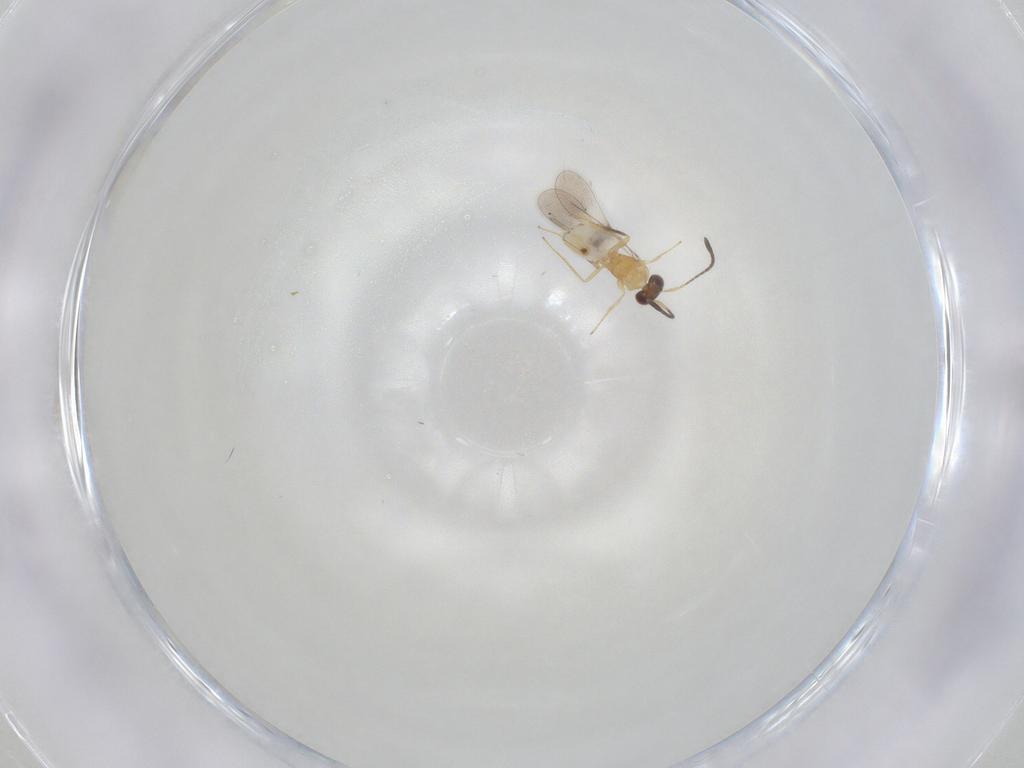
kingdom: Animalia
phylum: Arthropoda
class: Insecta
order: Hymenoptera
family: Mymaridae
